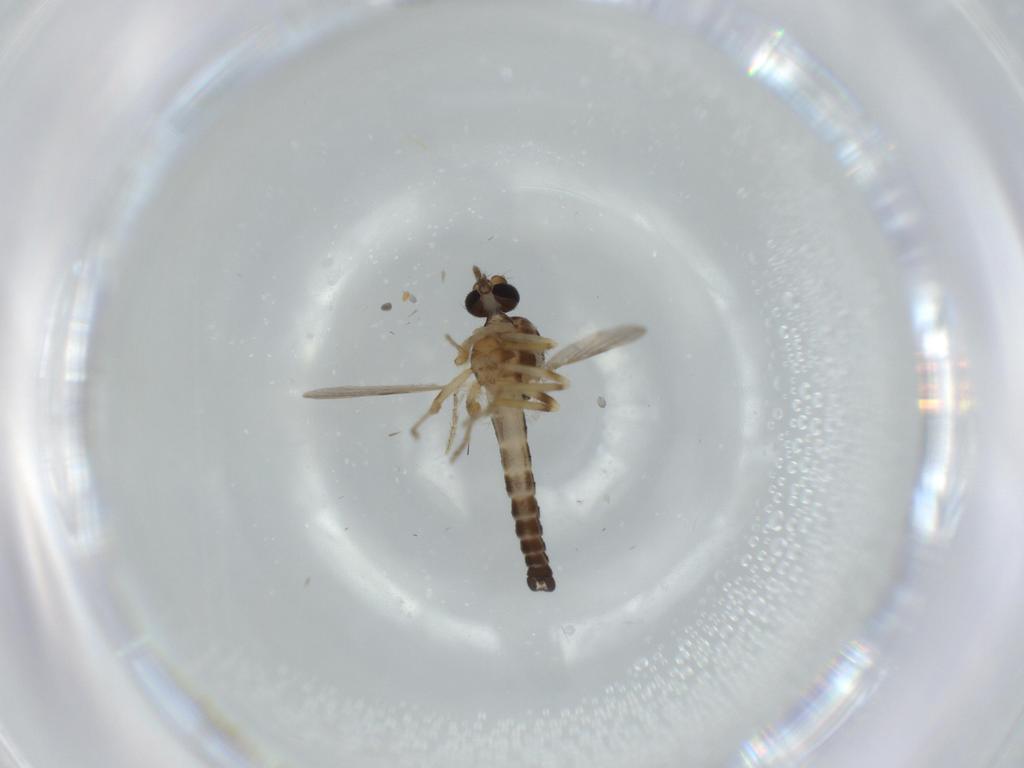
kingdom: Animalia
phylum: Arthropoda
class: Insecta
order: Diptera
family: Ceratopogonidae
